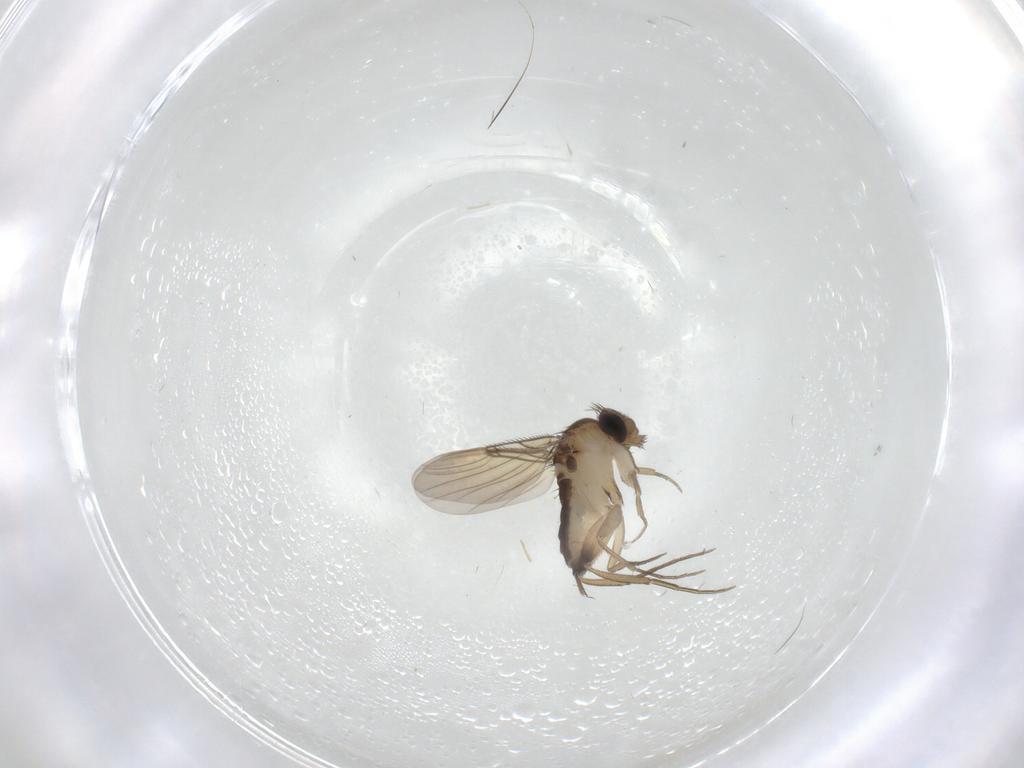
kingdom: Animalia
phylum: Arthropoda
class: Insecta
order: Diptera
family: Phoridae
